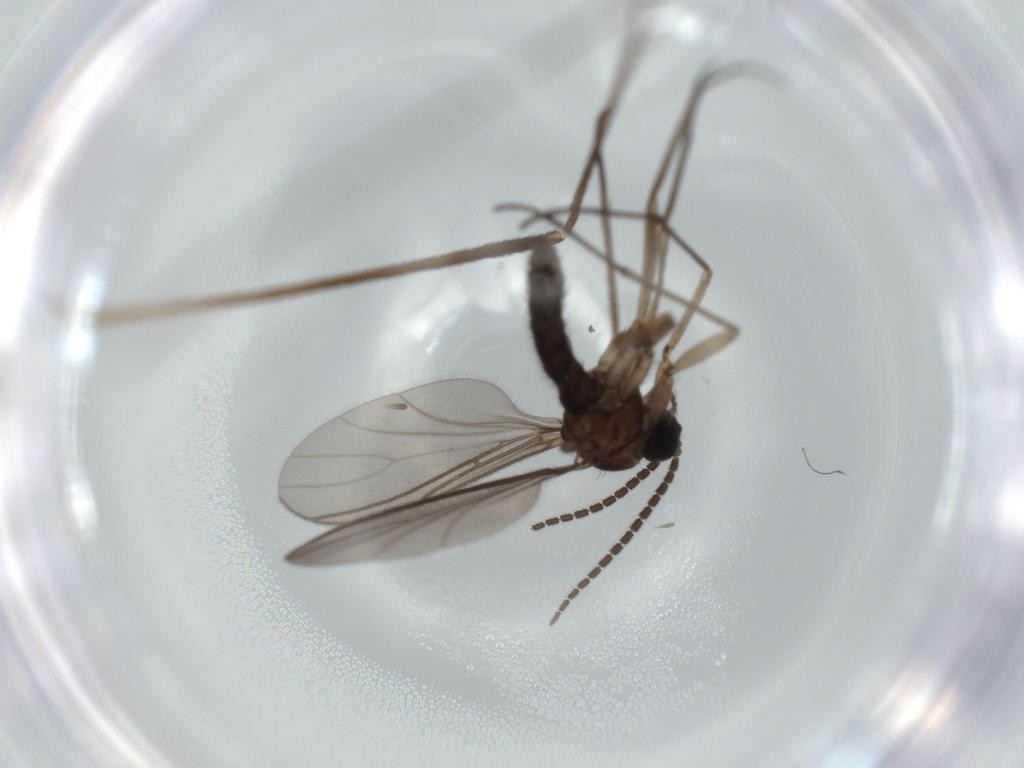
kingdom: Animalia
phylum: Arthropoda
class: Insecta
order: Diptera
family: Sciaridae
